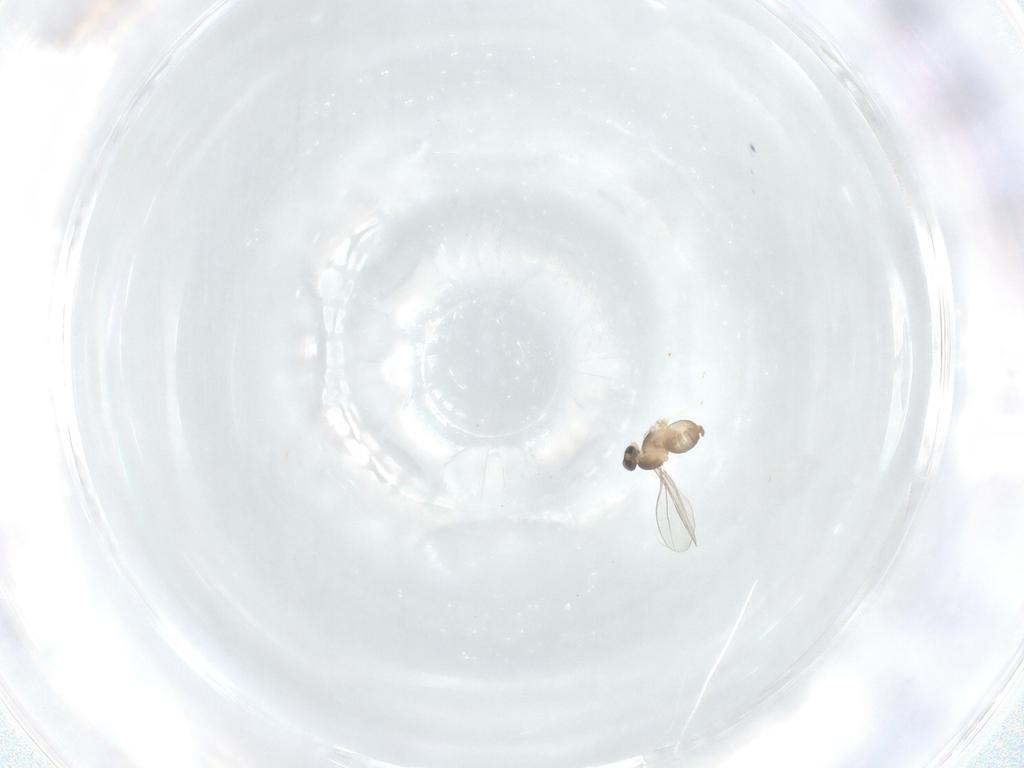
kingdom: Animalia
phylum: Arthropoda
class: Insecta
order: Diptera
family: Cecidomyiidae
